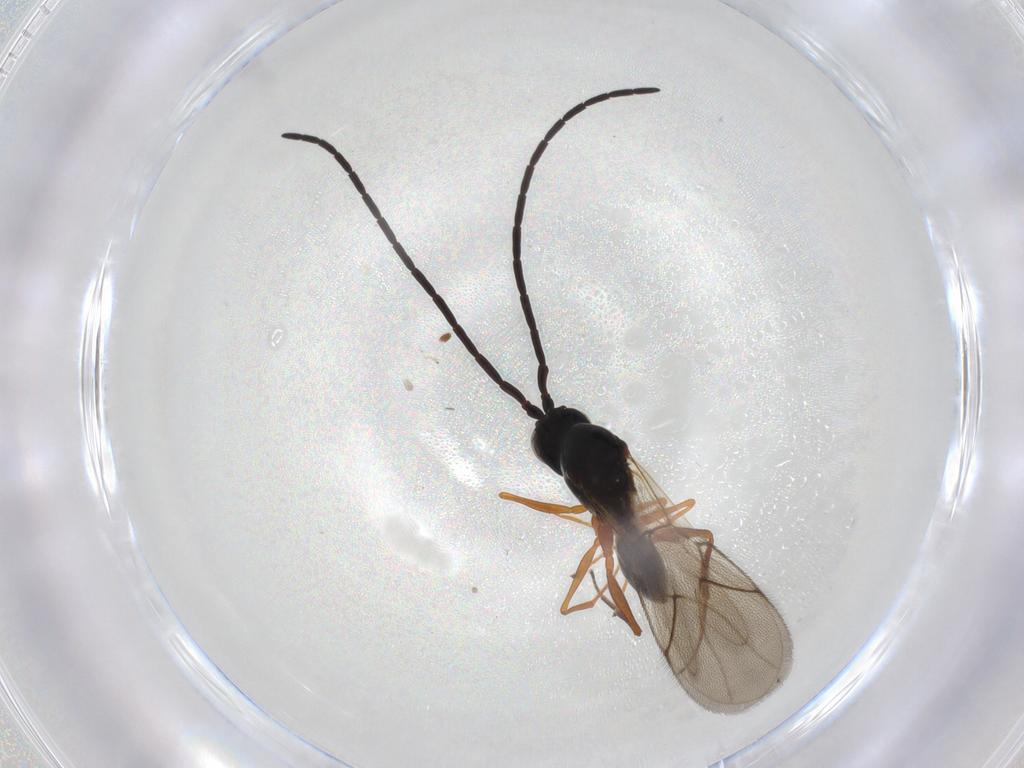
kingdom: Animalia
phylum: Arthropoda
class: Insecta
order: Hymenoptera
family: Figitidae
